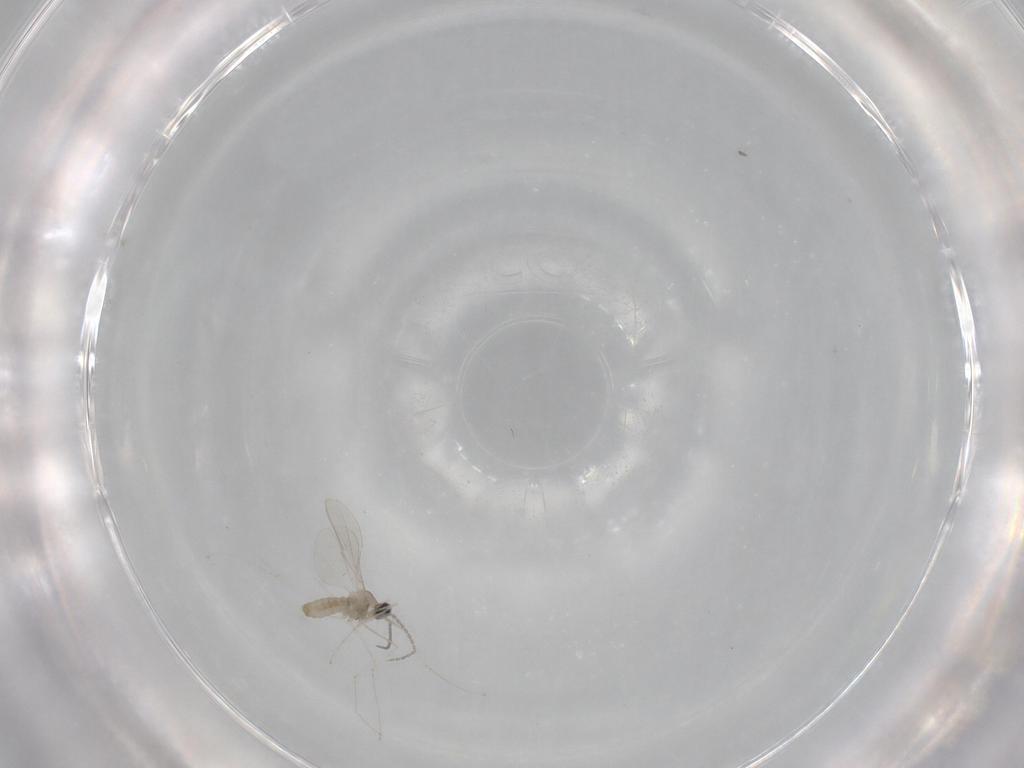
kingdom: Animalia
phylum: Arthropoda
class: Insecta
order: Diptera
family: Cecidomyiidae
